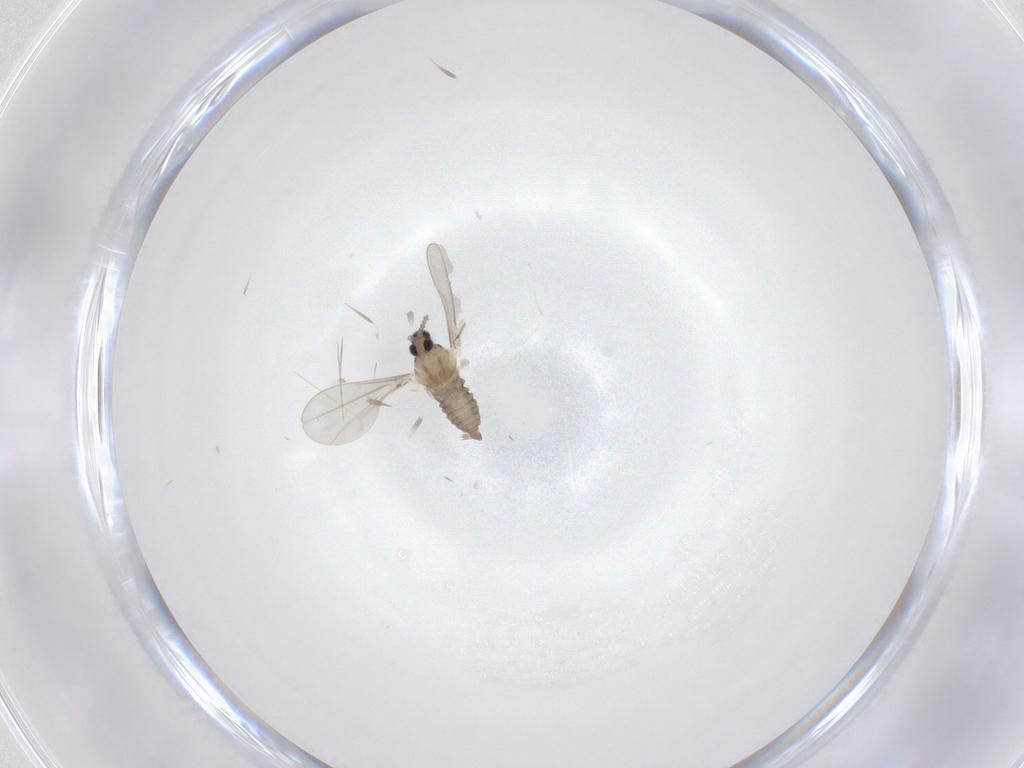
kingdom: Animalia
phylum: Arthropoda
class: Insecta
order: Diptera
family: Cecidomyiidae
